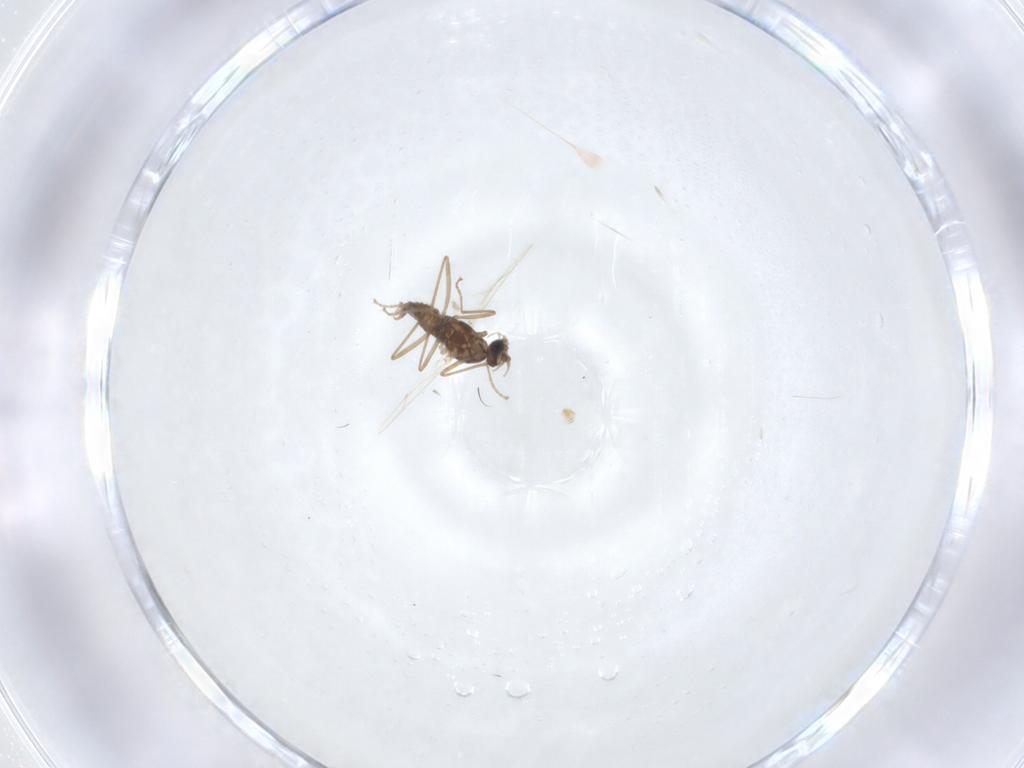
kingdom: Animalia
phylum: Arthropoda
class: Insecta
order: Diptera
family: Cecidomyiidae
